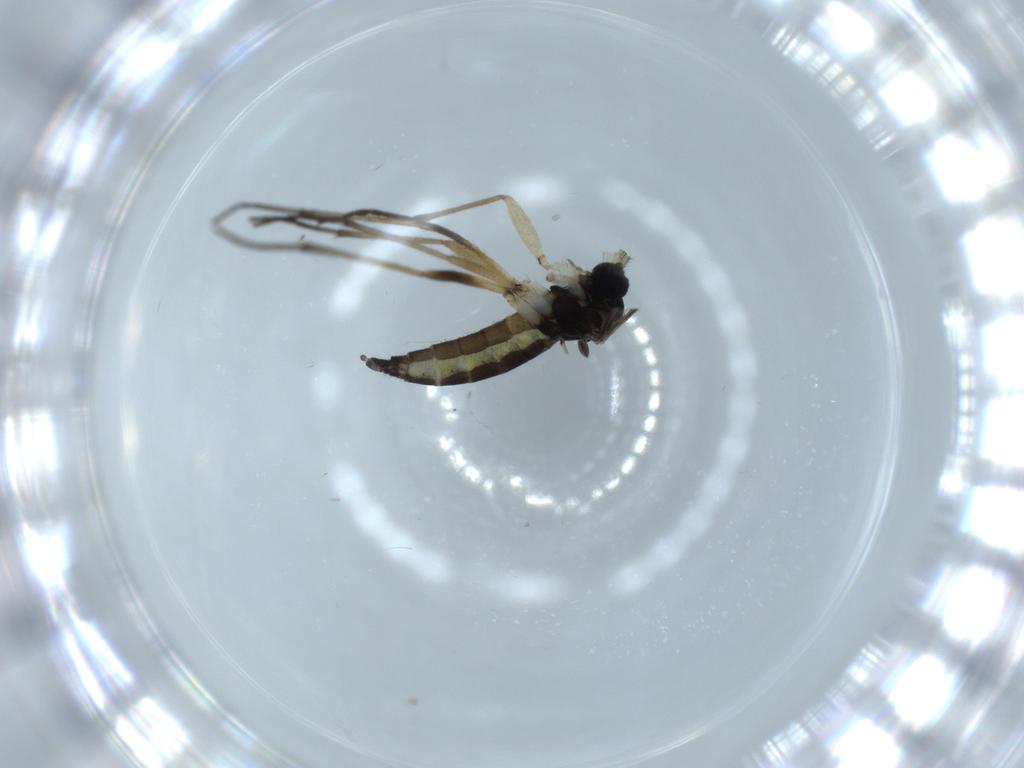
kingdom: Animalia
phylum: Arthropoda
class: Insecta
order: Diptera
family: Sciaridae
